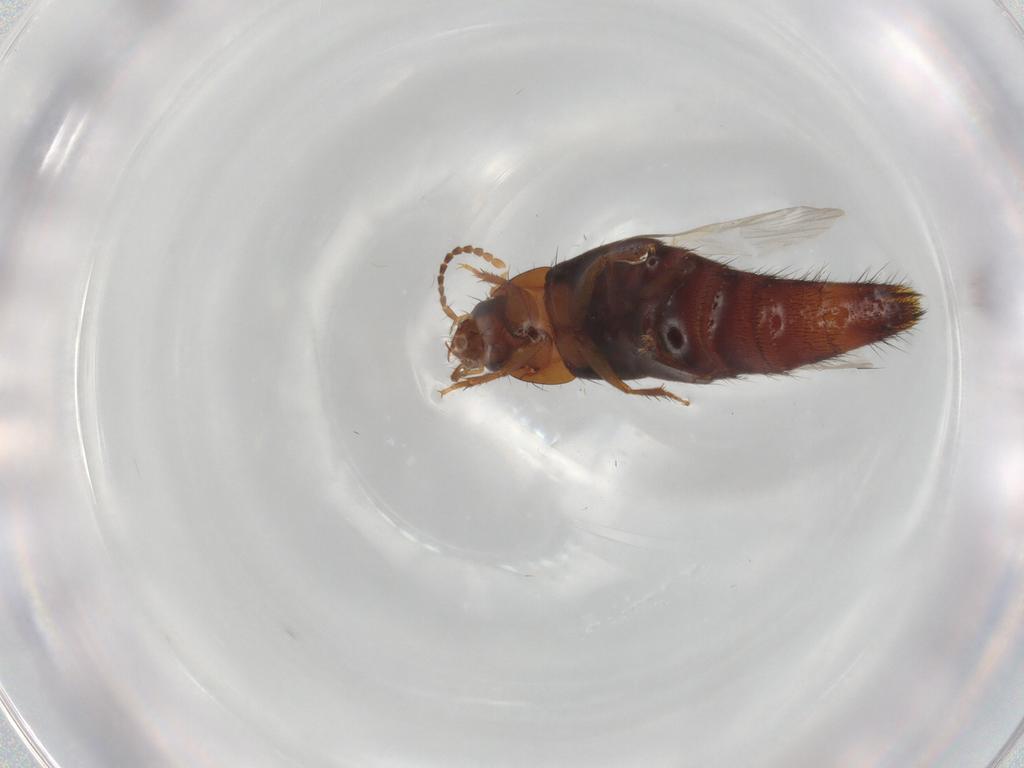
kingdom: Animalia
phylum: Arthropoda
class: Insecta
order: Coleoptera
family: Staphylinidae
